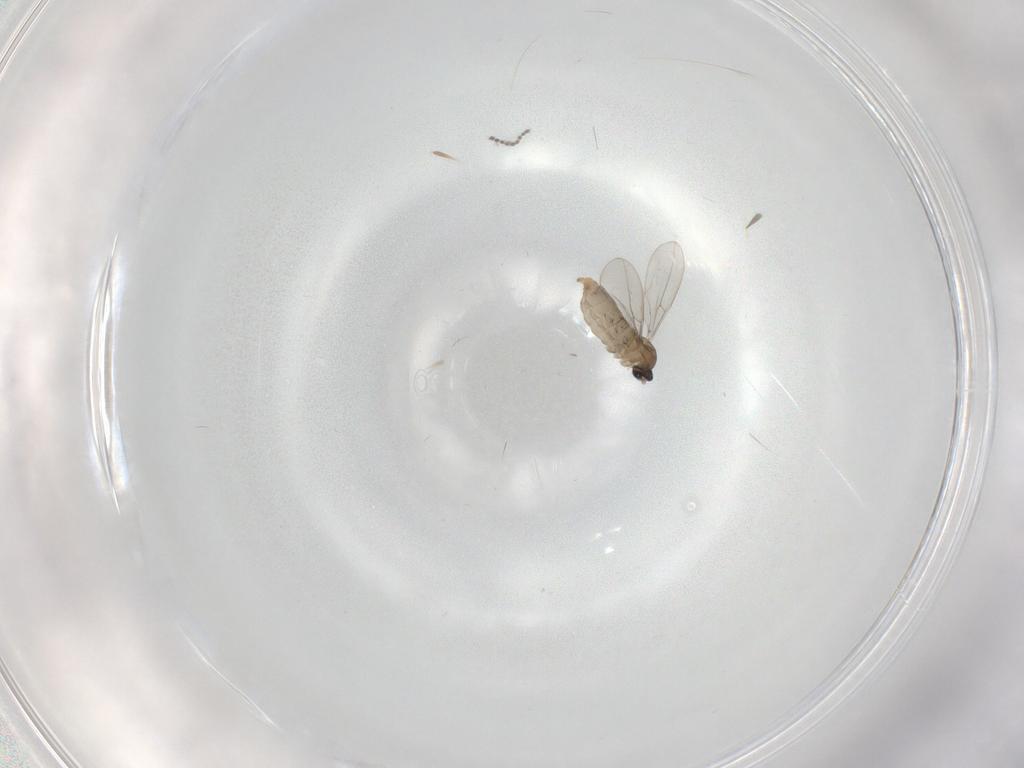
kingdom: Animalia
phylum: Arthropoda
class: Insecta
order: Diptera
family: Cecidomyiidae
